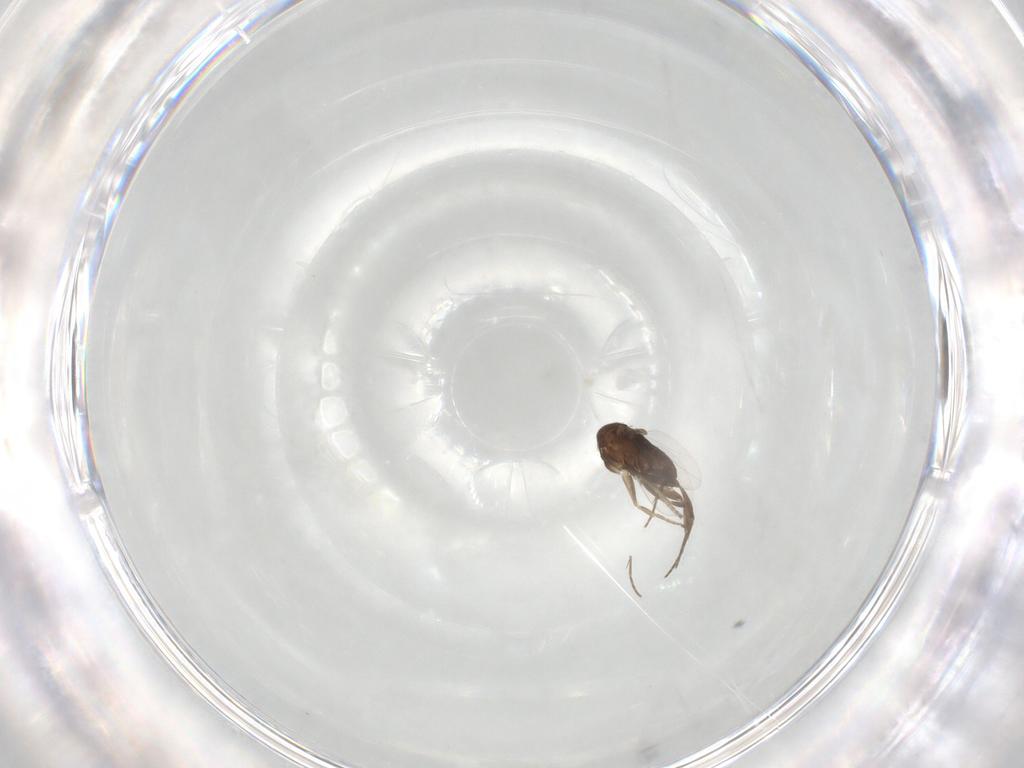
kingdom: Animalia
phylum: Arthropoda
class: Insecta
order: Diptera
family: Phoridae
